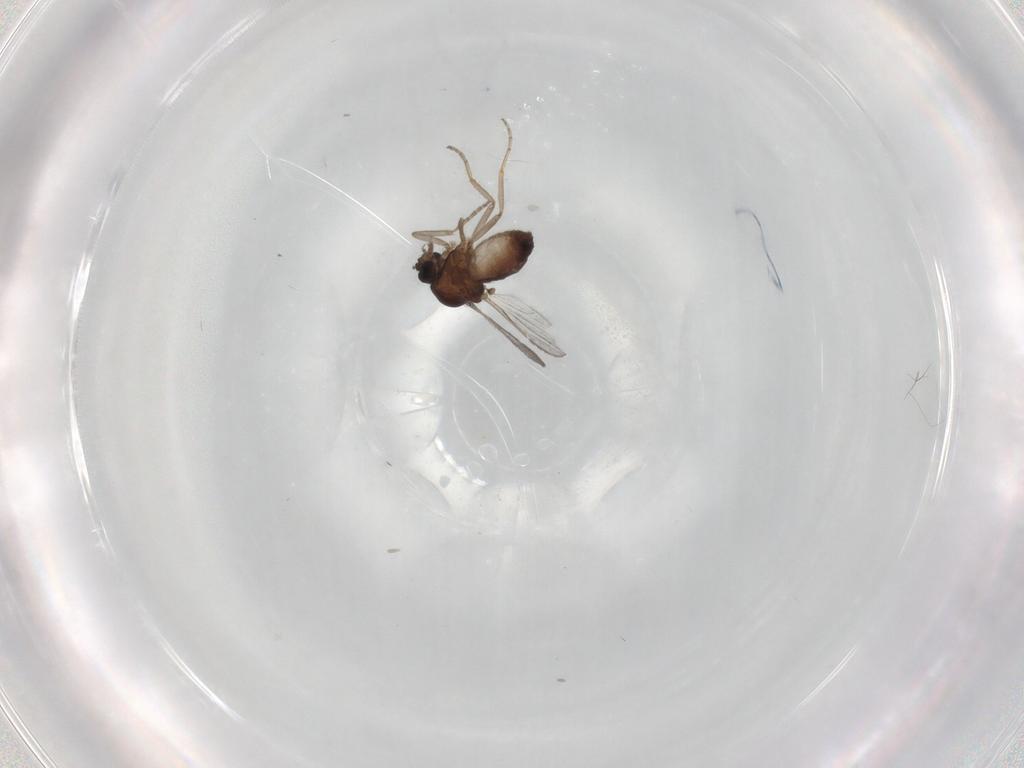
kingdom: Animalia
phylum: Arthropoda
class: Insecta
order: Diptera
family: Ceratopogonidae
